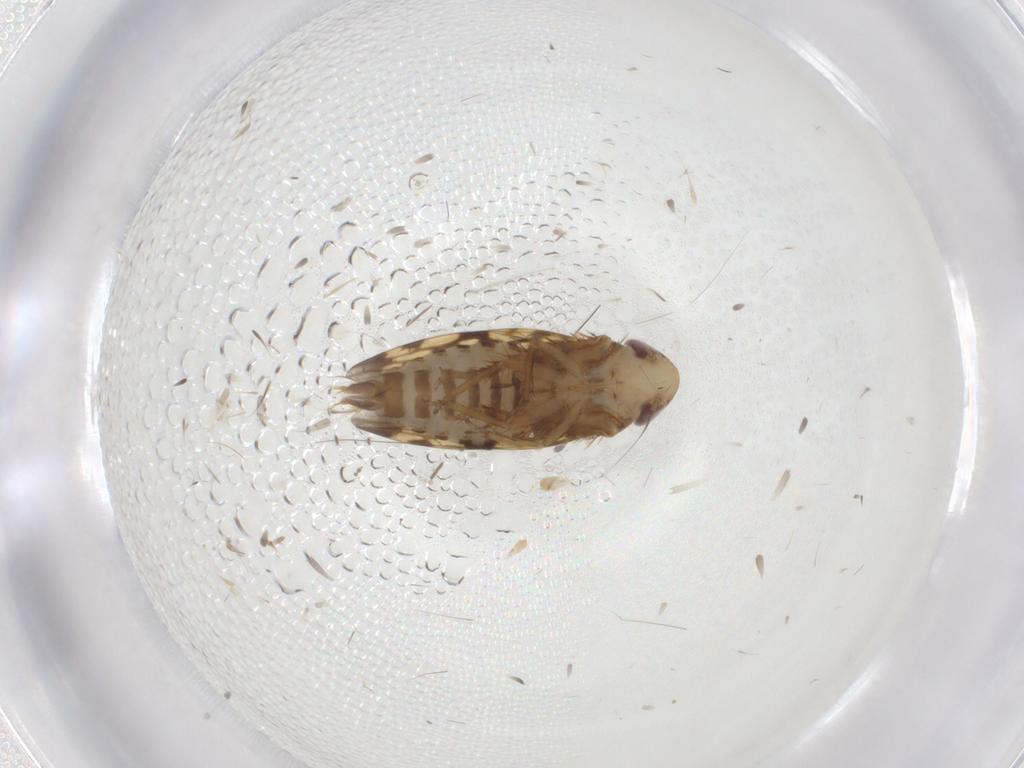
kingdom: Animalia
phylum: Arthropoda
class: Insecta
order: Hemiptera
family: Cicadellidae
